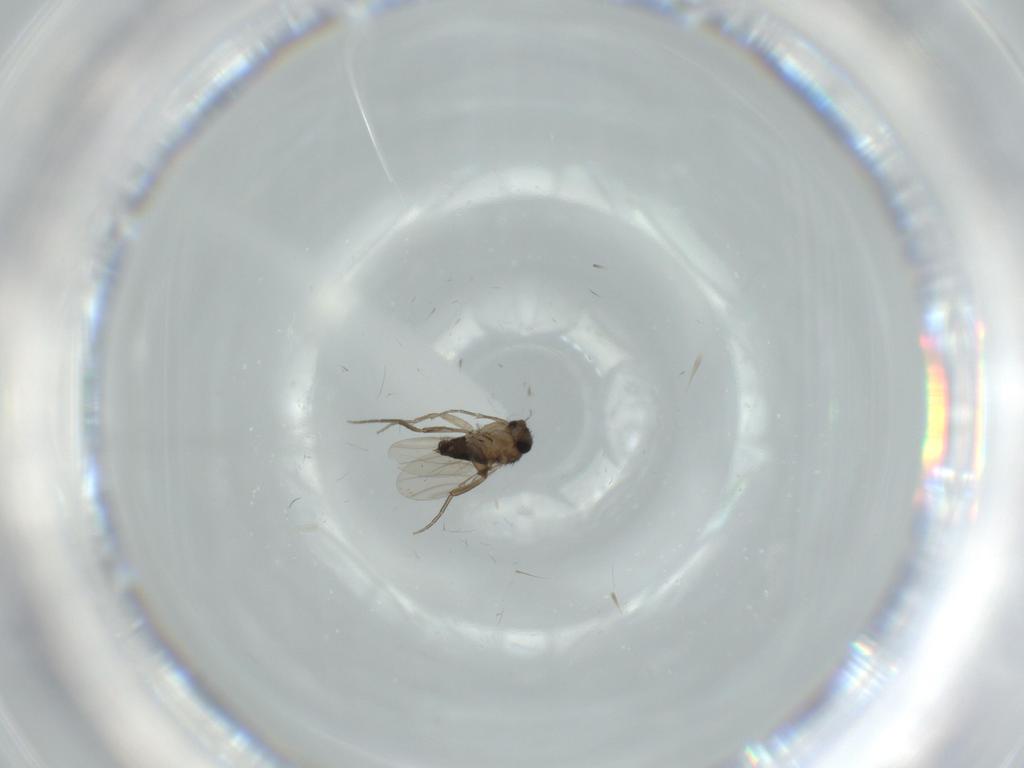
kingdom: Animalia
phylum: Arthropoda
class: Insecta
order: Diptera
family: Phoridae
